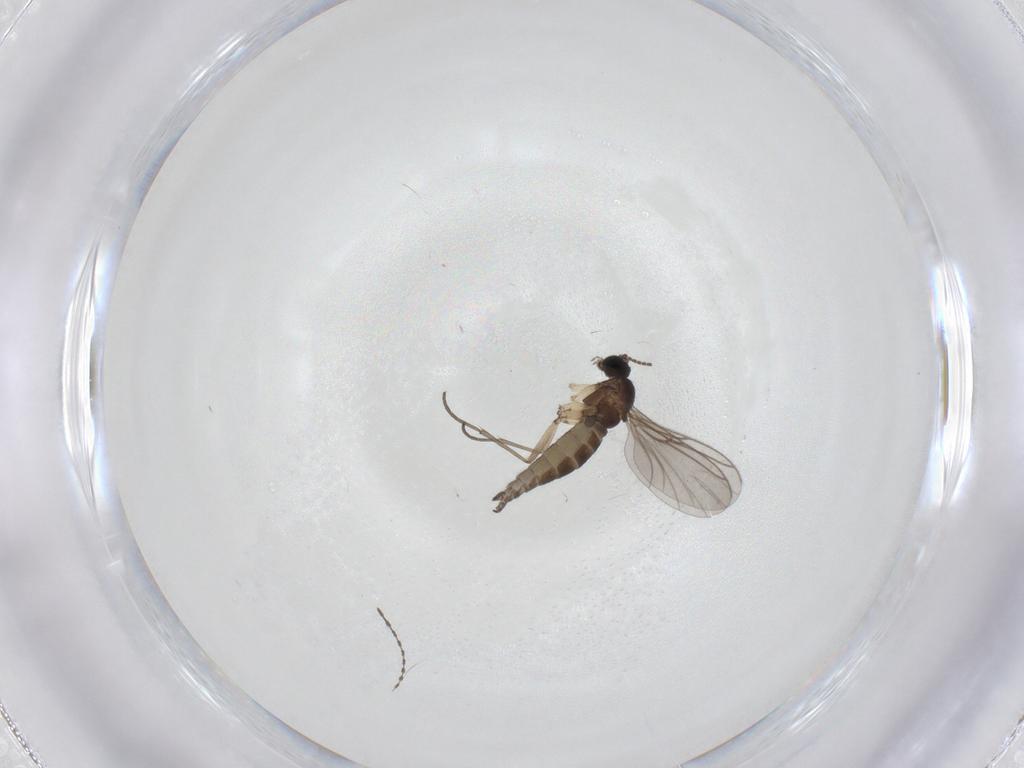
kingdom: Animalia
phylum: Arthropoda
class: Insecta
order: Diptera
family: Sciaridae
